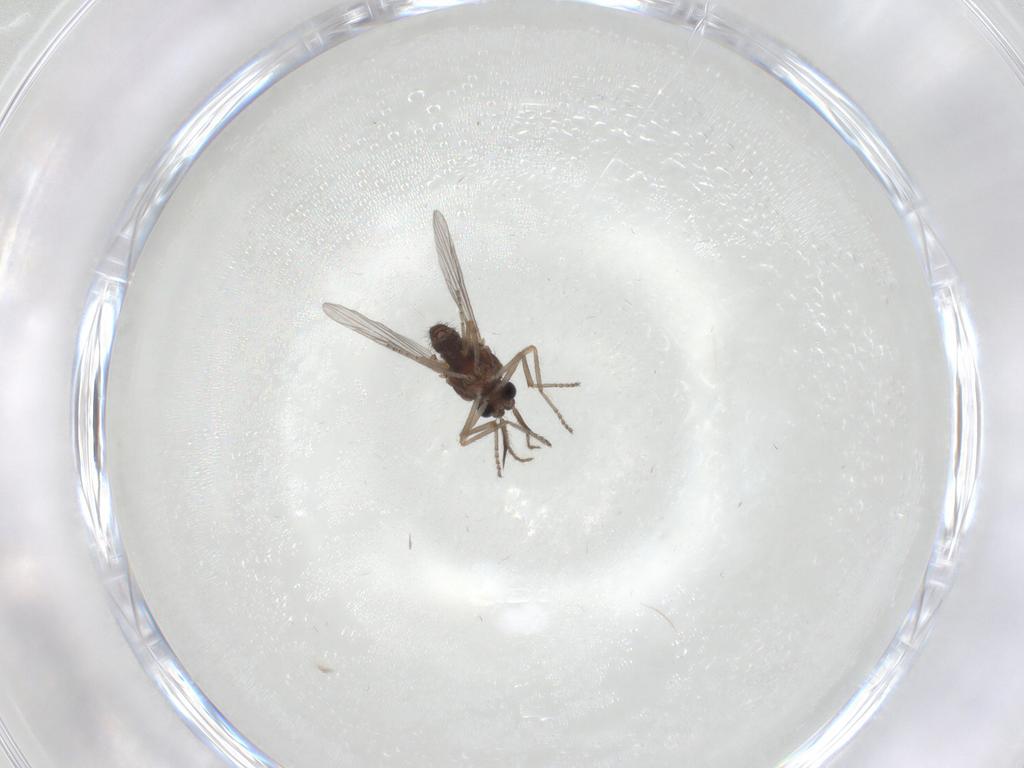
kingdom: Animalia
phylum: Arthropoda
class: Insecta
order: Diptera
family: Ceratopogonidae
